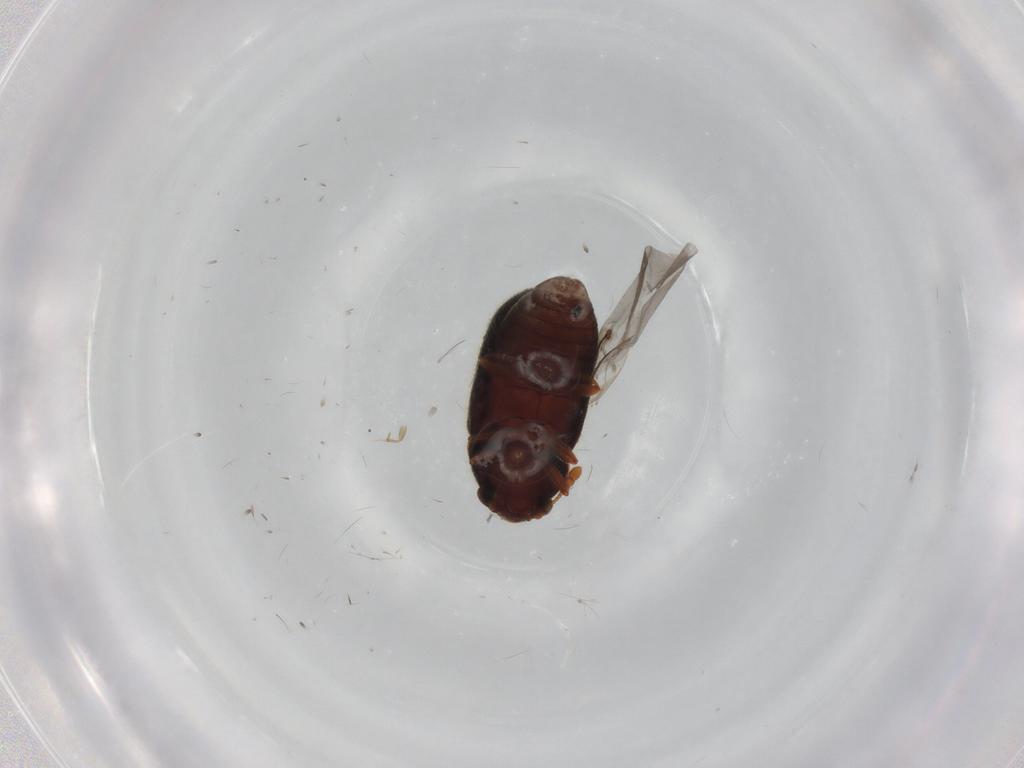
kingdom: Animalia
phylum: Arthropoda
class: Insecta
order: Coleoptera
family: Sphindidae
